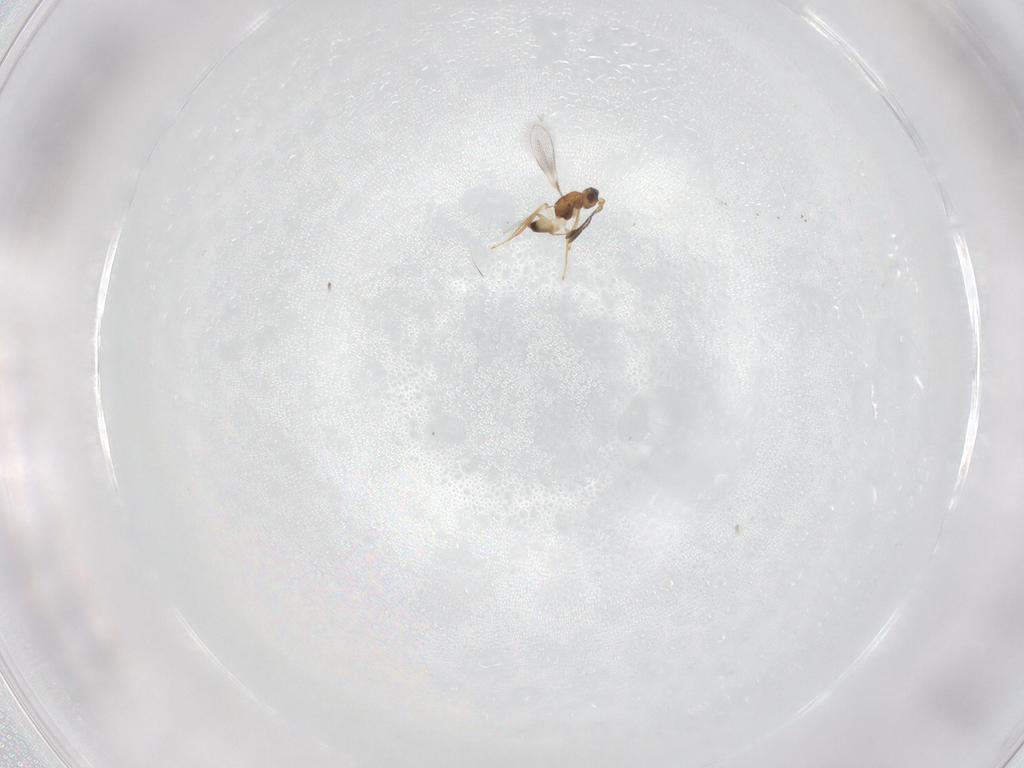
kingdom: Animalia
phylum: Arthropoda
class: Insecta
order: Hymenoptera
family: Mymaridae
